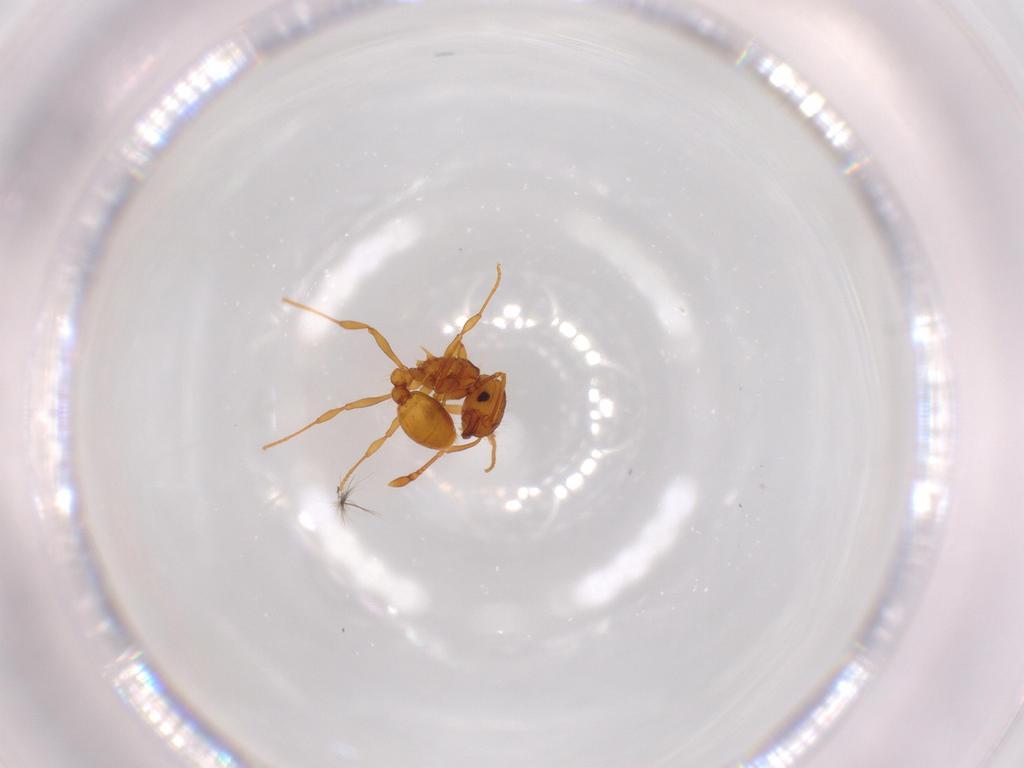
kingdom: Animalia
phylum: Arthropoda
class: Insecta
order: Hymenoptera
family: Formicidae
